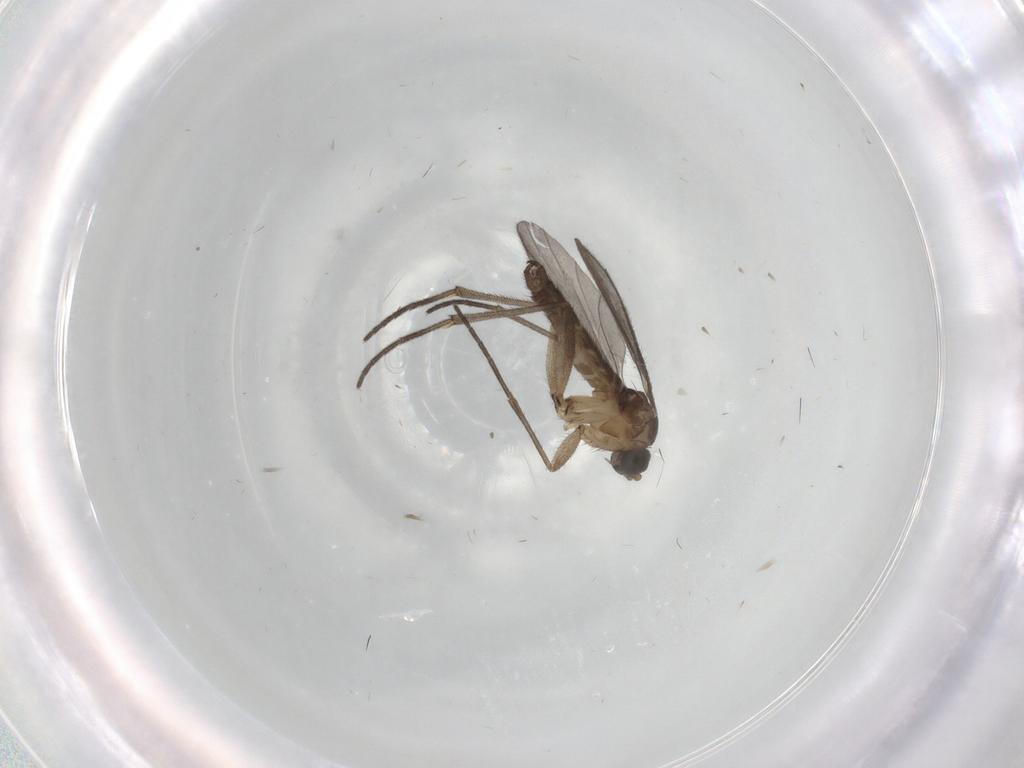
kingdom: Animalia
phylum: Arthropoda
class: Insecta
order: Diptera
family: Sciaridae
